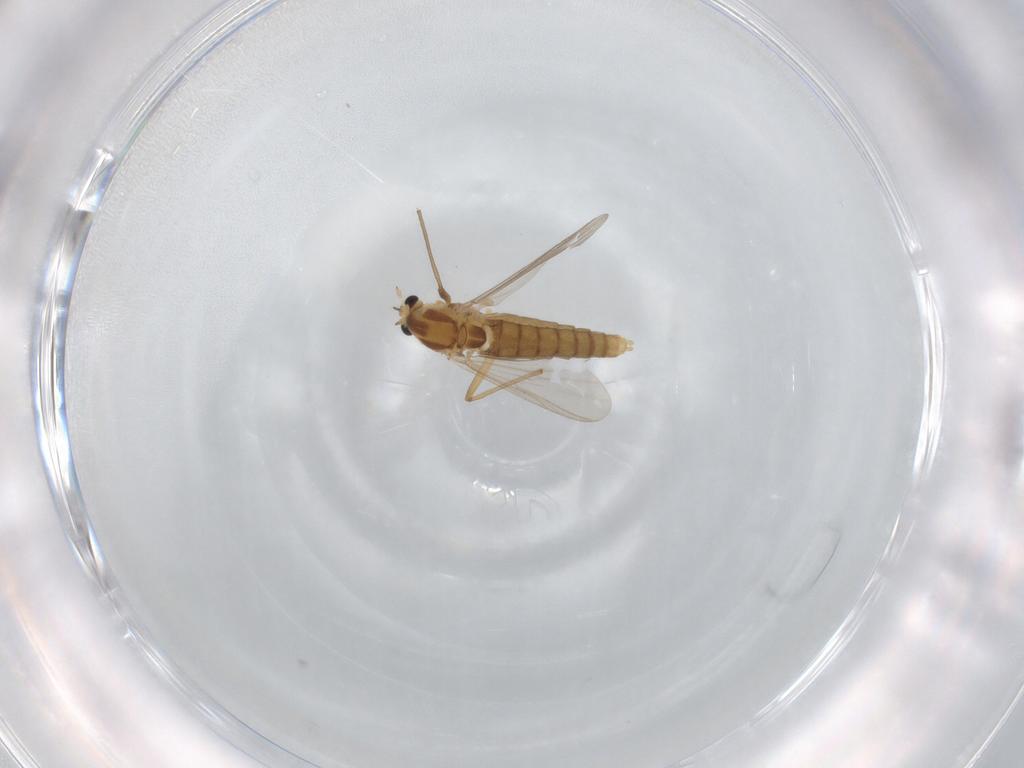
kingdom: Animalia
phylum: Arthropoda
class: Insecta
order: Diptera
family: Chironomidae
